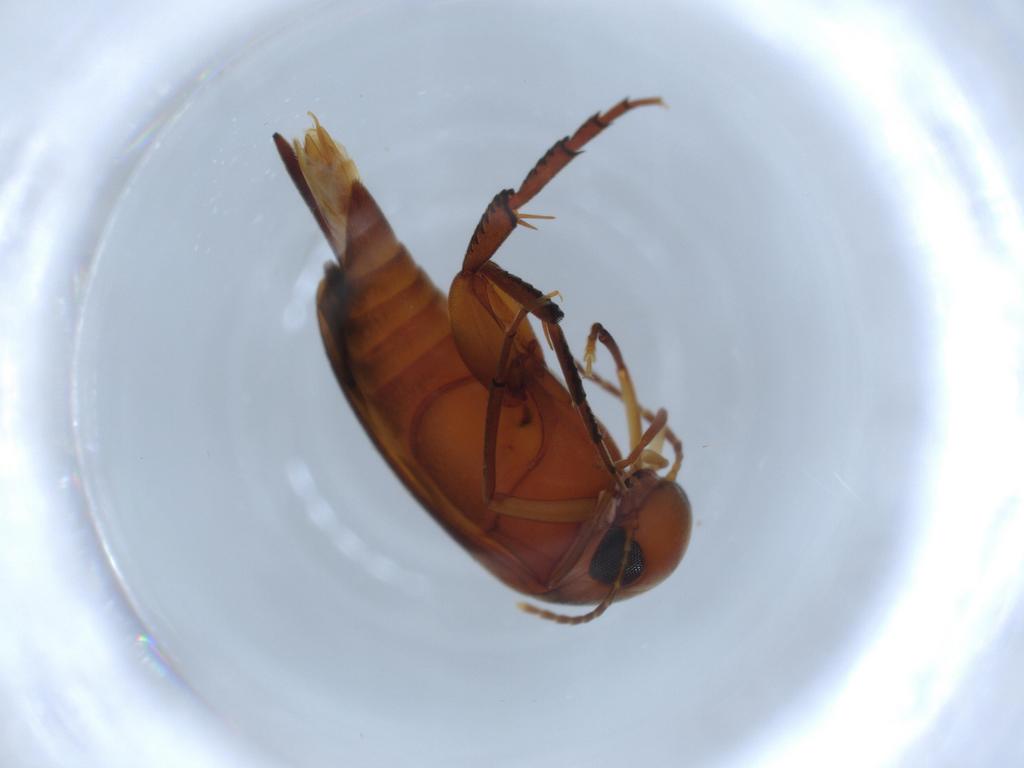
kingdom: Animalia
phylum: Arthropoda
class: Insecta
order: Coleoptera
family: Mordellidae
